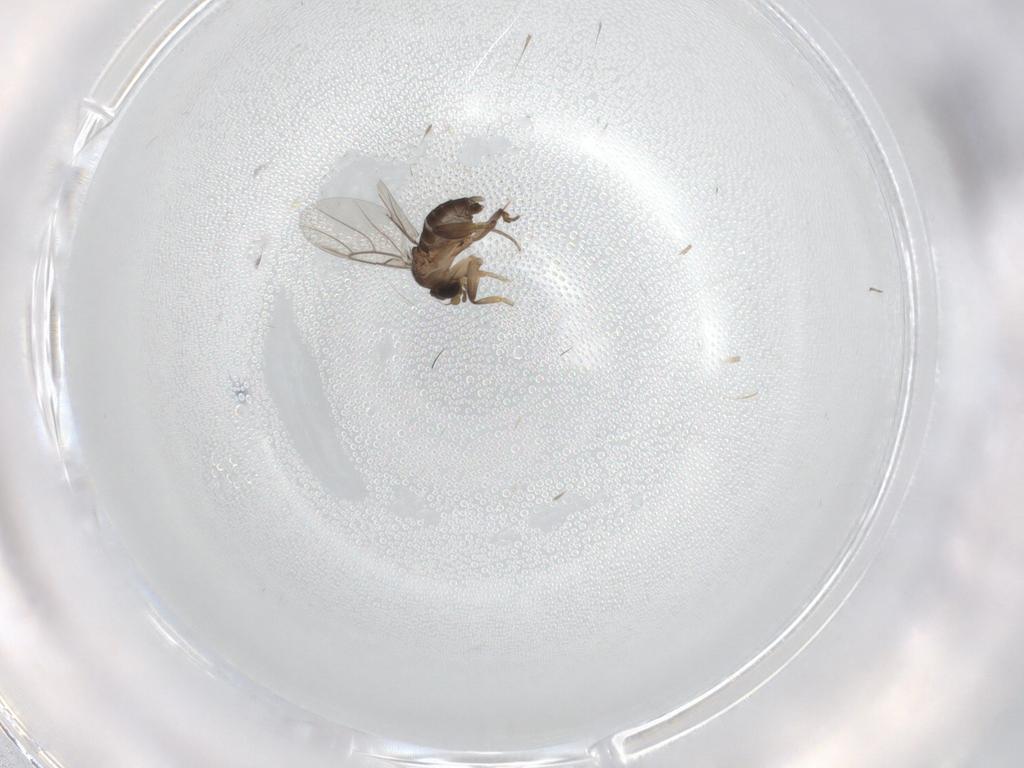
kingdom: Animalia
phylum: Arthropoda
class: Insecta
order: Diptera
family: Phoridae
